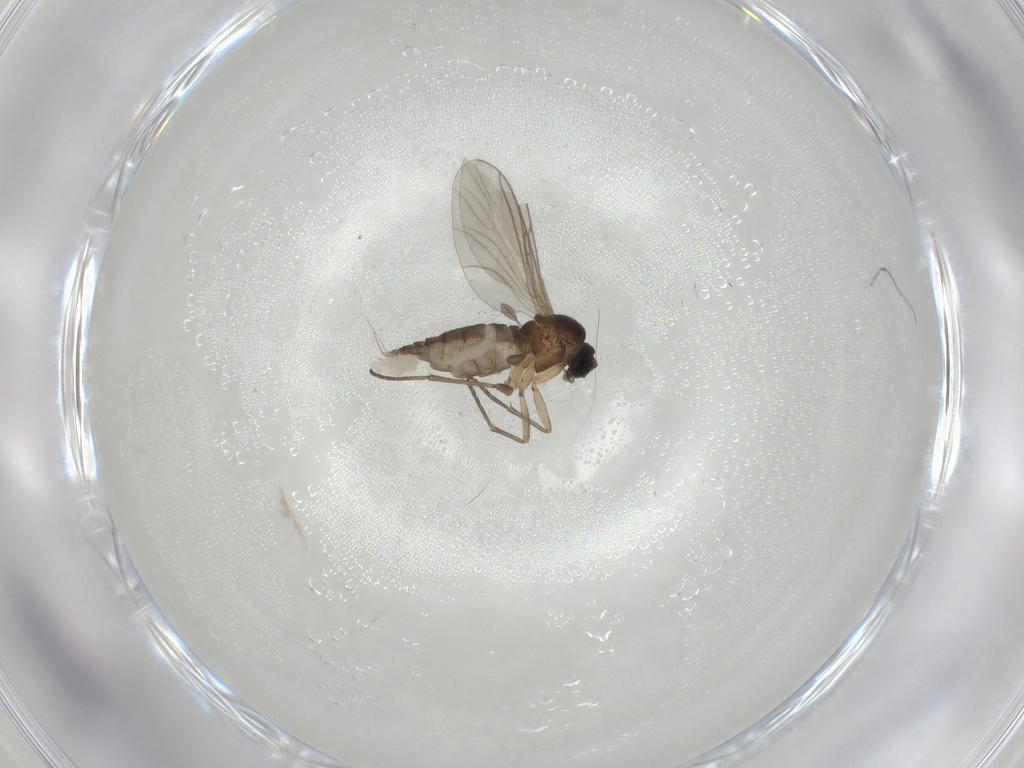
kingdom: Animalia
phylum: Arthropoda
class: Insecta
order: Diptera
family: Sciaridae
